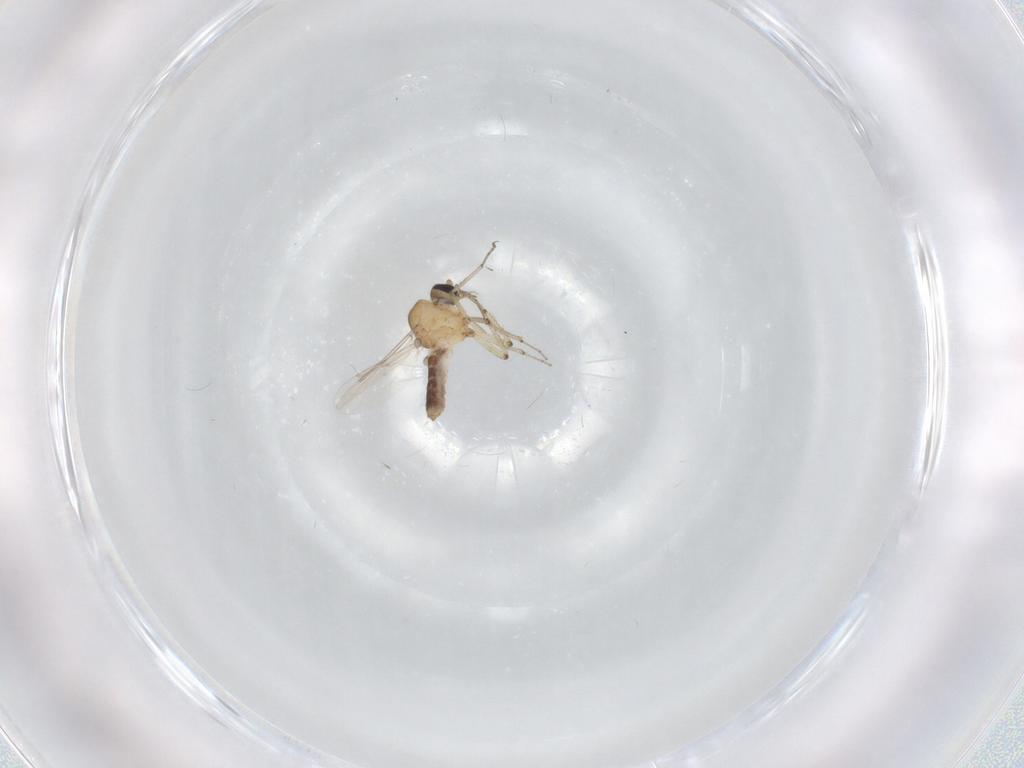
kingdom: Animalia
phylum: Arthropoda
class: Insecta
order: Diptera
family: Ceratopogonidae
